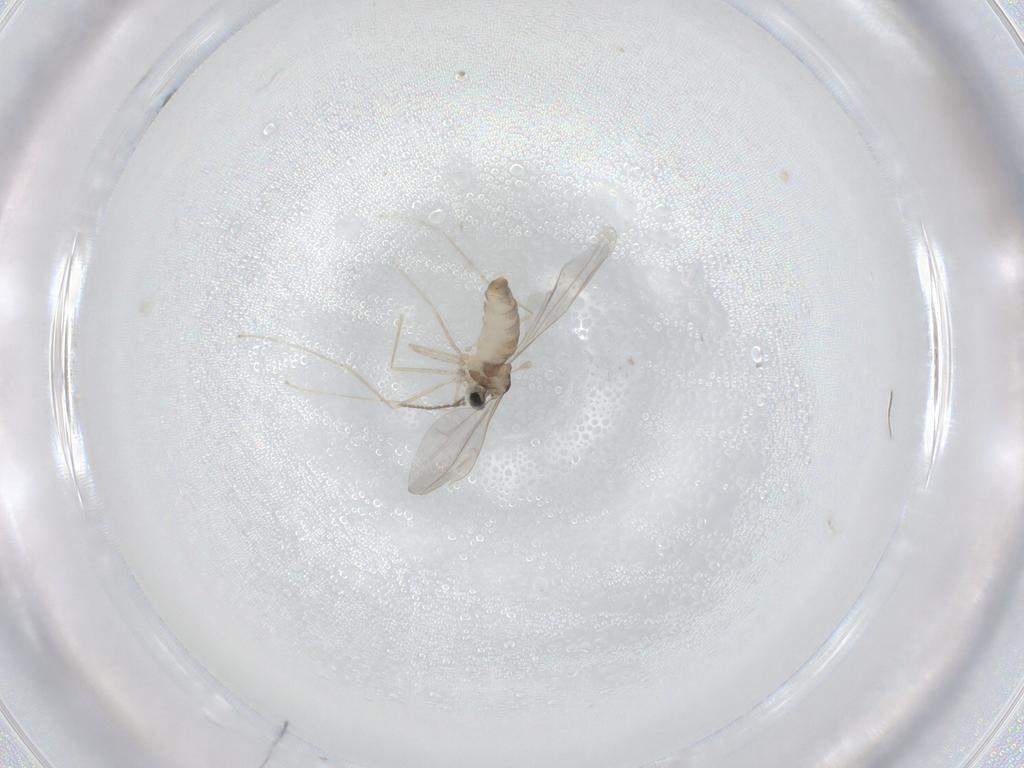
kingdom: Animalia
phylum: Arthropoda
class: Insecta
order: Diptera
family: Cecidomyiidae
